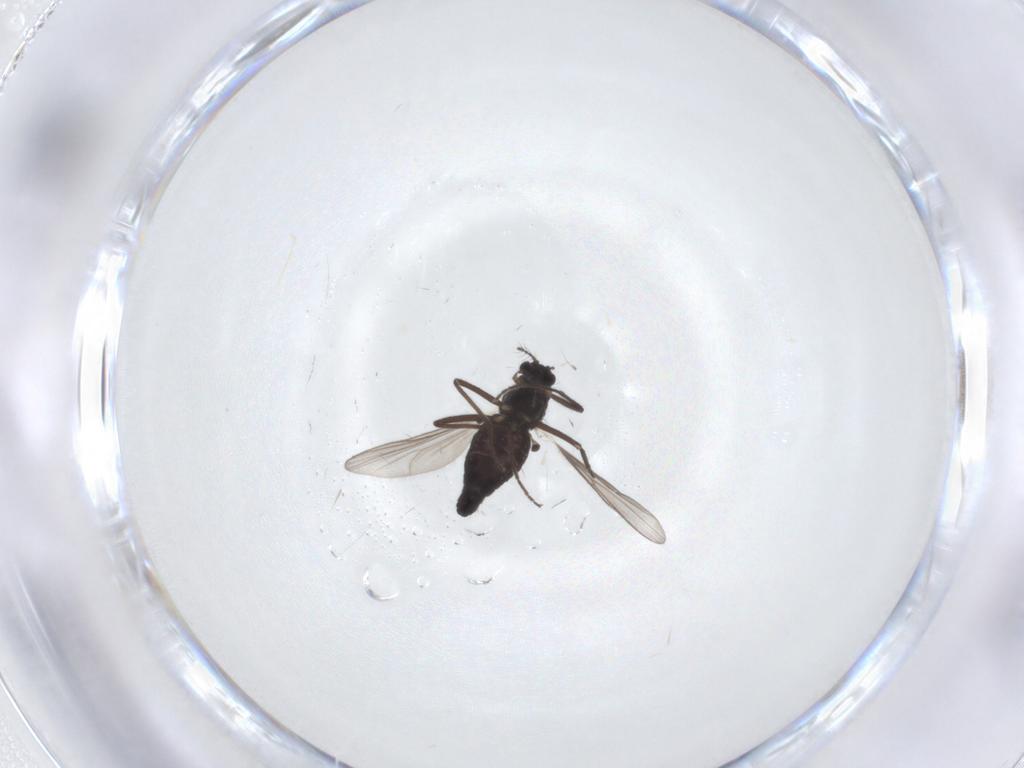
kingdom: Animalia
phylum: Arthropoda
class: Insecta
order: Diptera
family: Chironomidae
